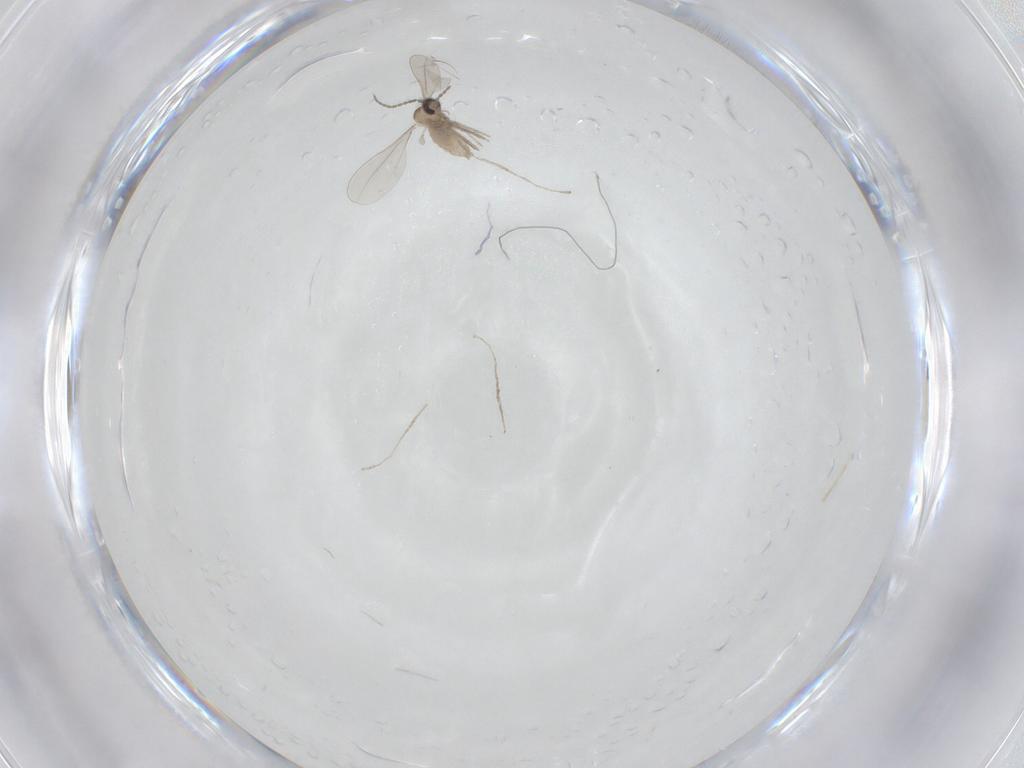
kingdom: Animalia
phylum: Arthropoda
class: Insecta
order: Diptera
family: Cecidomyiidae
